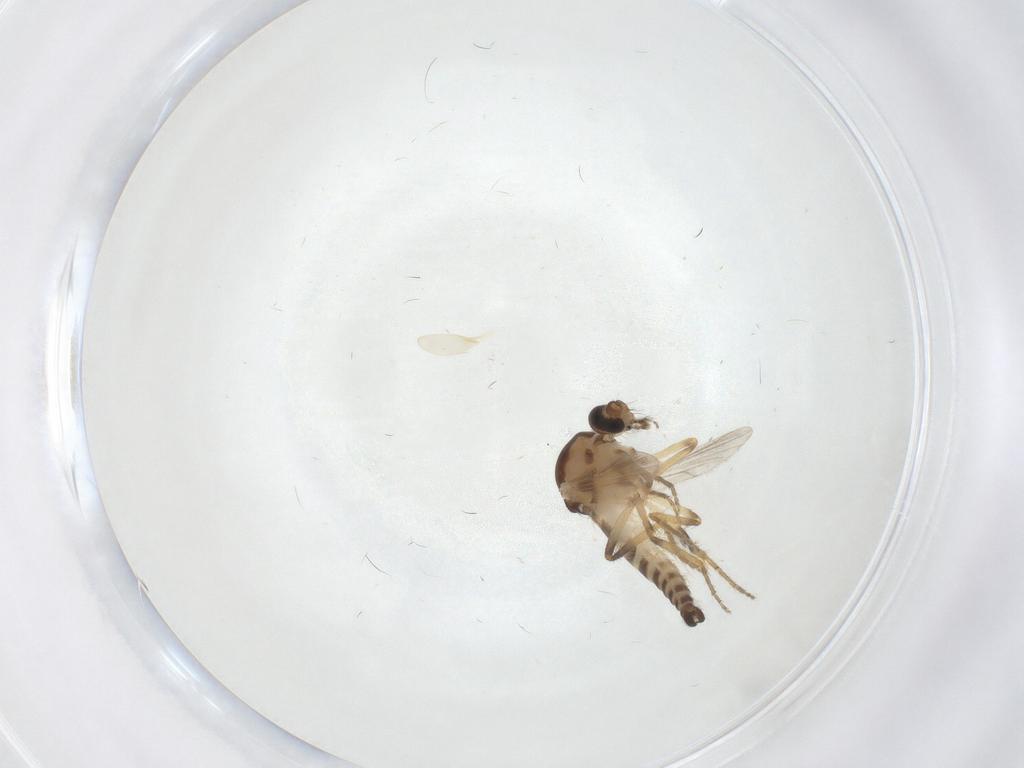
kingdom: Animalia
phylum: Arthropoda
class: Insecta
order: Diptera
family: Ceratopogonidae
